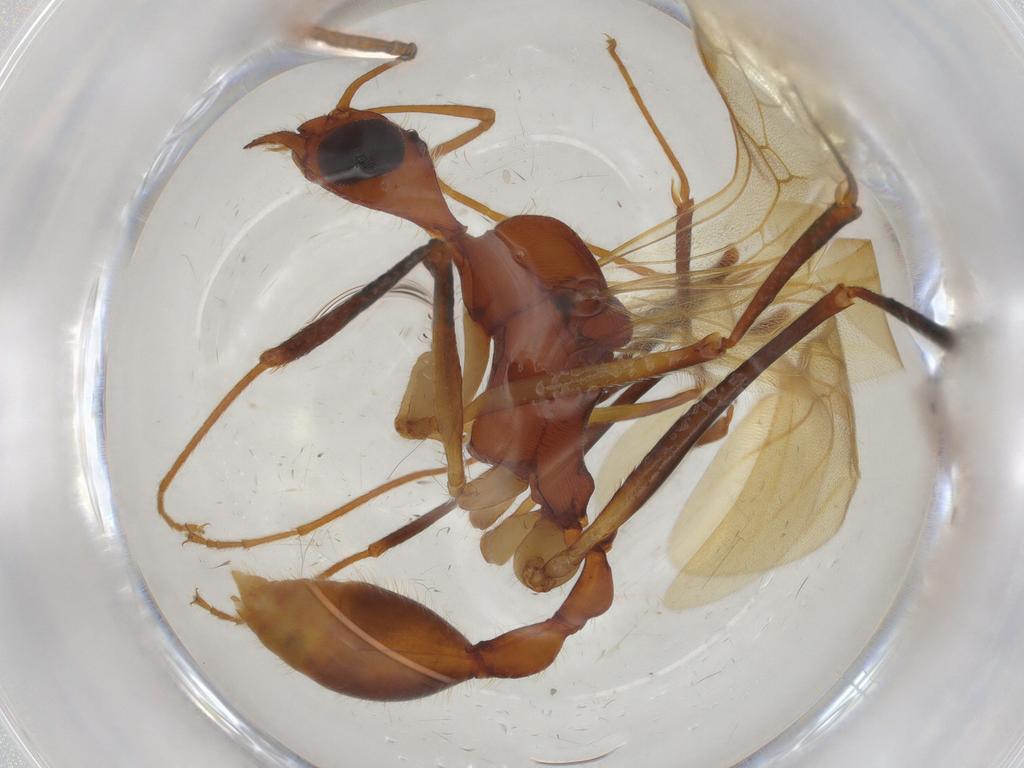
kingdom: Animalia
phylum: Arthropoda
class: Insecta
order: Hymenoptera
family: Formicidae
